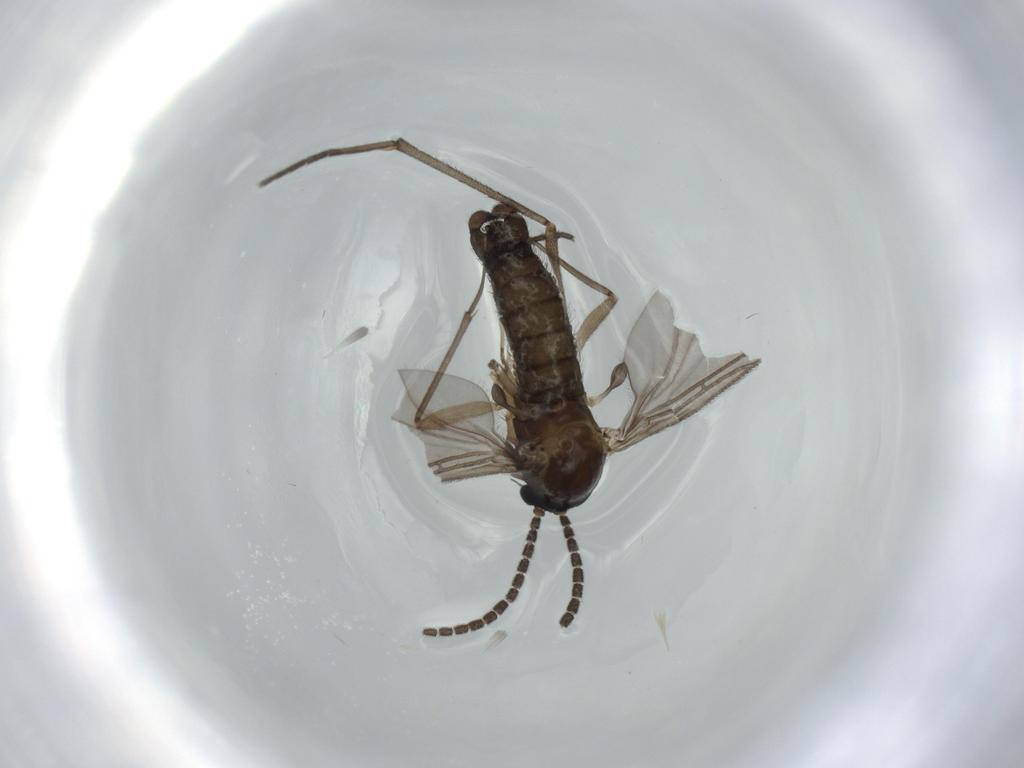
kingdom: Animalia
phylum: Arthropoda
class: Insecta
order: Diptera
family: Sciaridae
